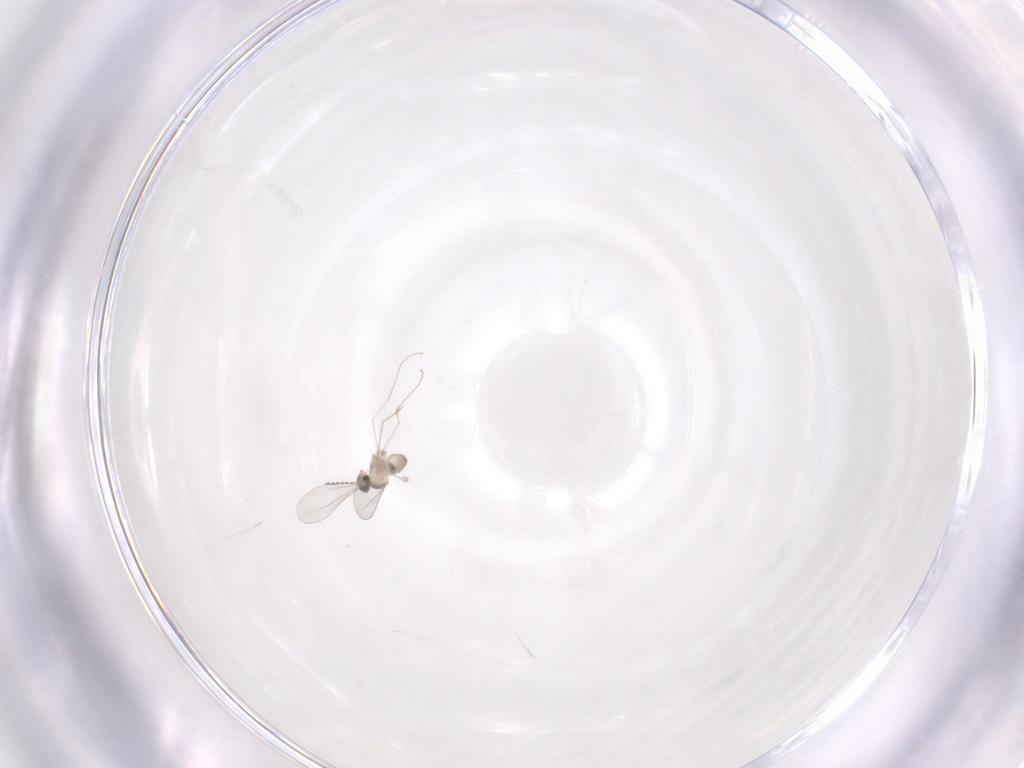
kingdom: Animalia
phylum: Arthropoda
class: Insecta
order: Diptera
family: Cecidomyiidae
